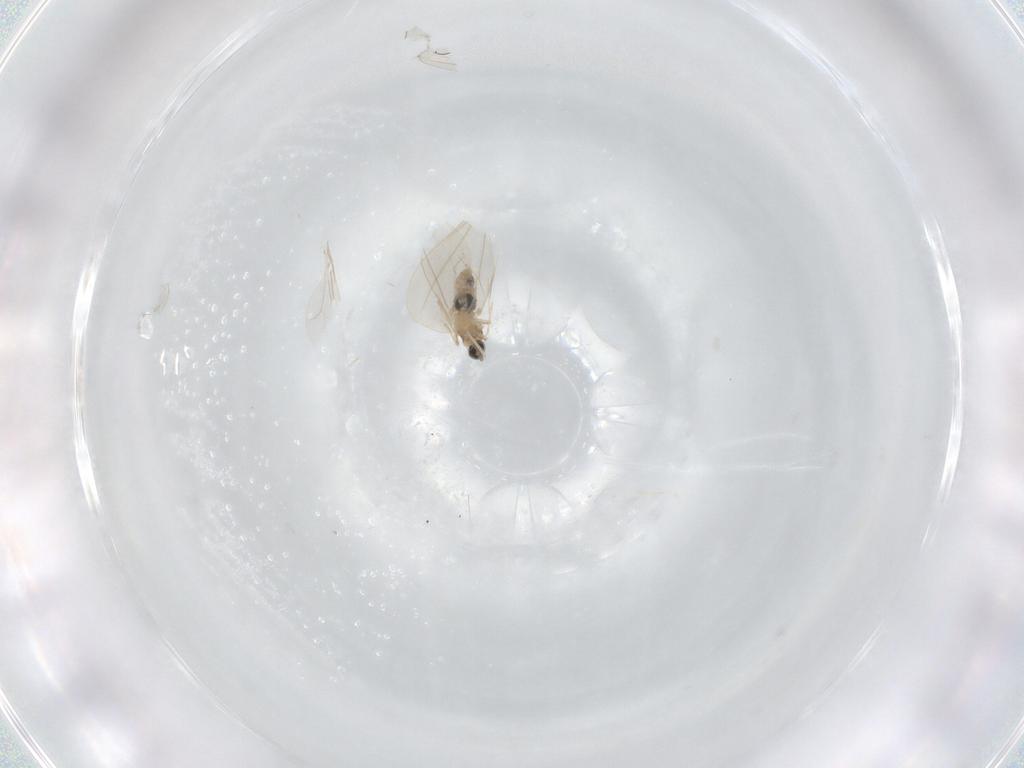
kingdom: Animalia
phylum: Arthropoda
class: Insecta
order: Diptera
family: Cecidomyiidae
